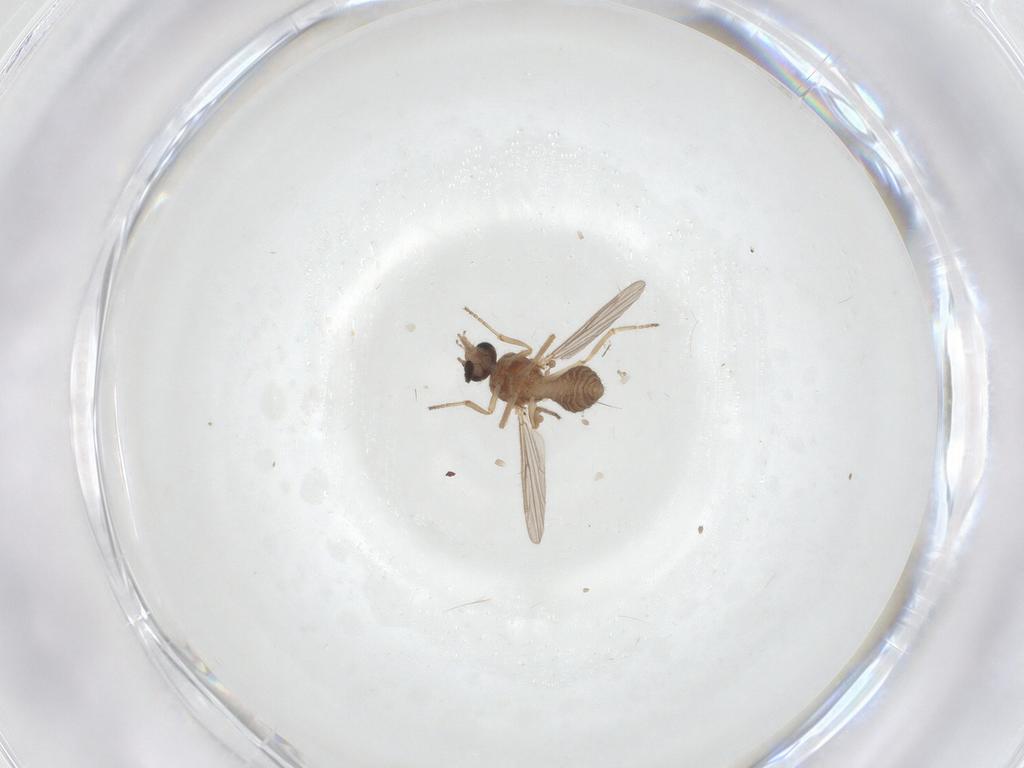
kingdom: Animalia
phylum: Arthropoda
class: Insecta
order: Diptera
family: Ceratopogonidae
